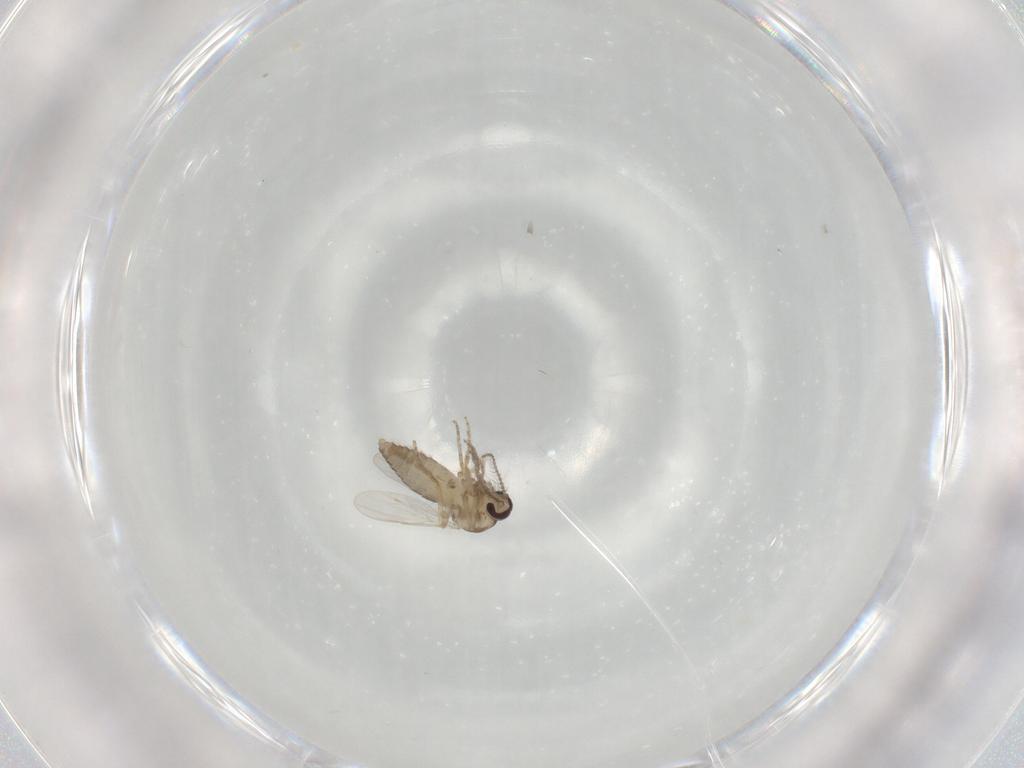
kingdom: Animalia
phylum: Arthropoda
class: Insecta
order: Diptera
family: Ceratopogonidae
